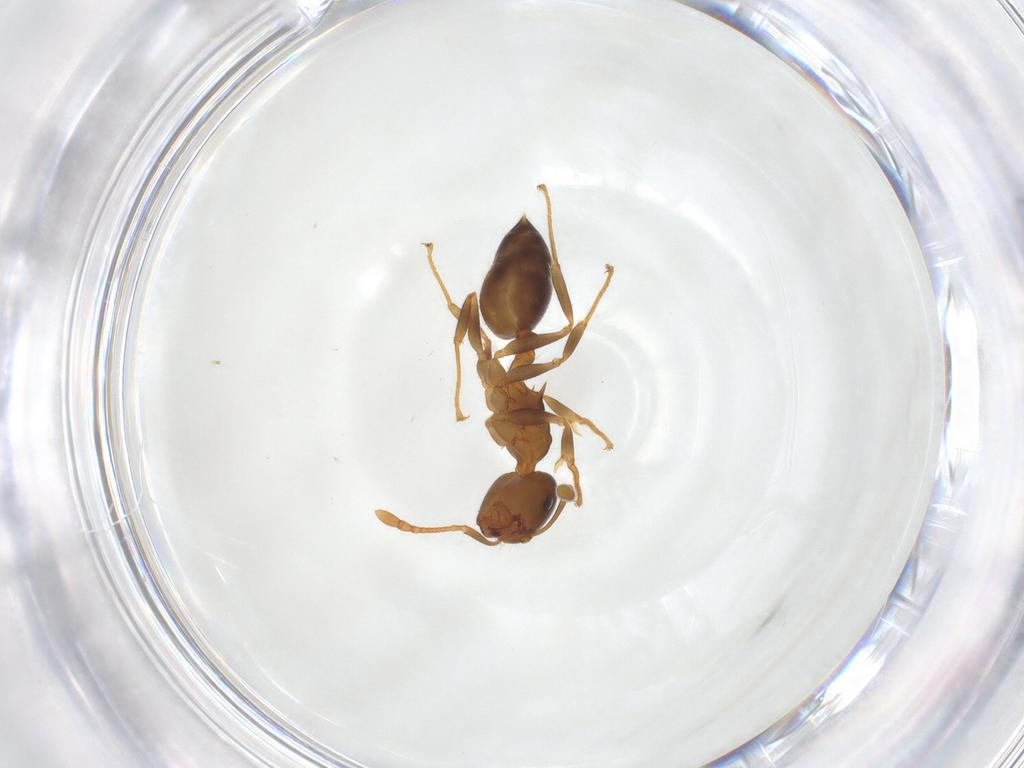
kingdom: Animalia
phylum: Arthropoda
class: Insecta
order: Hymenoptera
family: Formicidae
